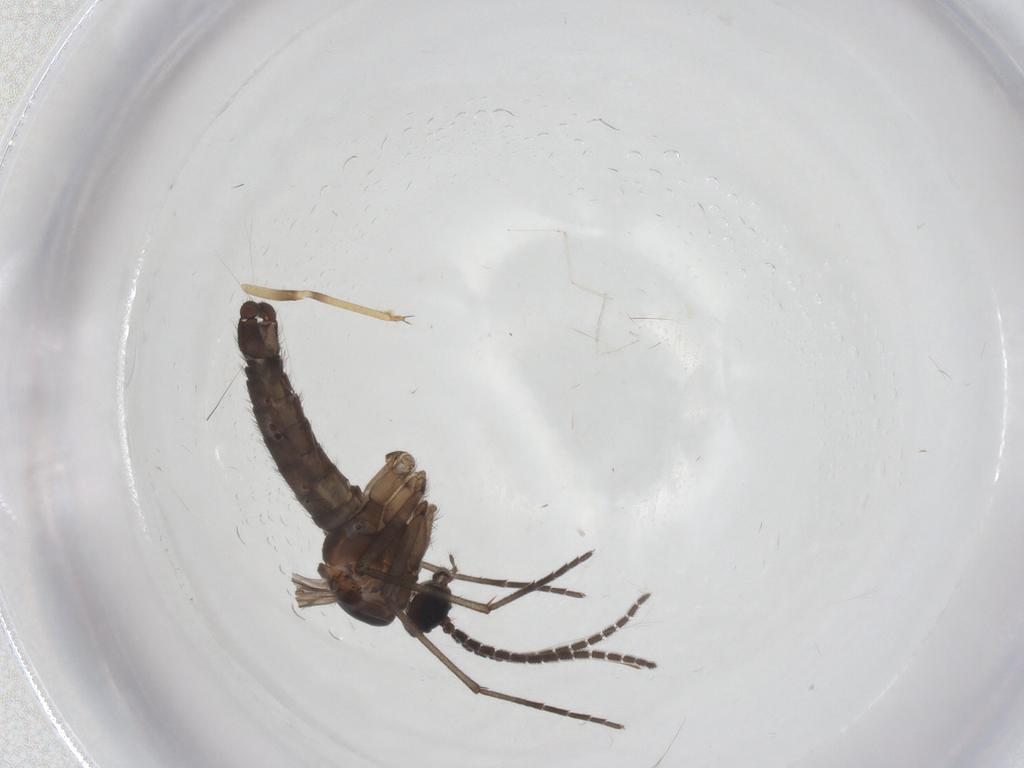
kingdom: Animalia
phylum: Arthropoda
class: Insecta
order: Diptera
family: Sciaridae
